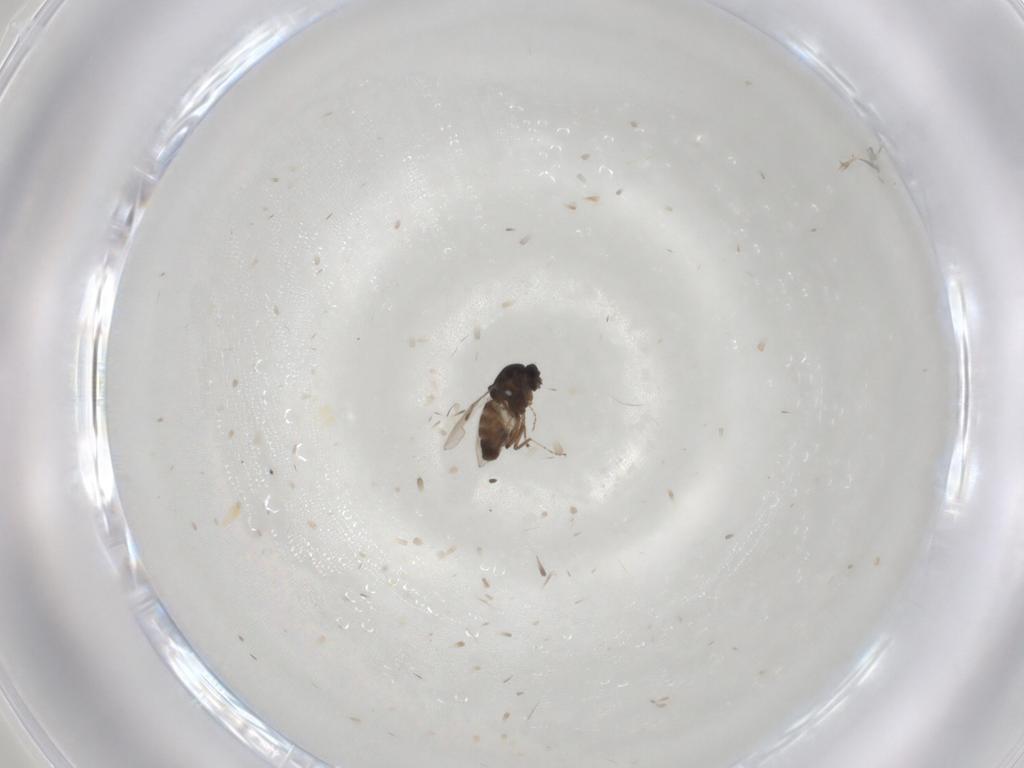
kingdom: Animalia
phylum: Arthropoda
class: Insecta
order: Diptera
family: Ceratopogonidae
